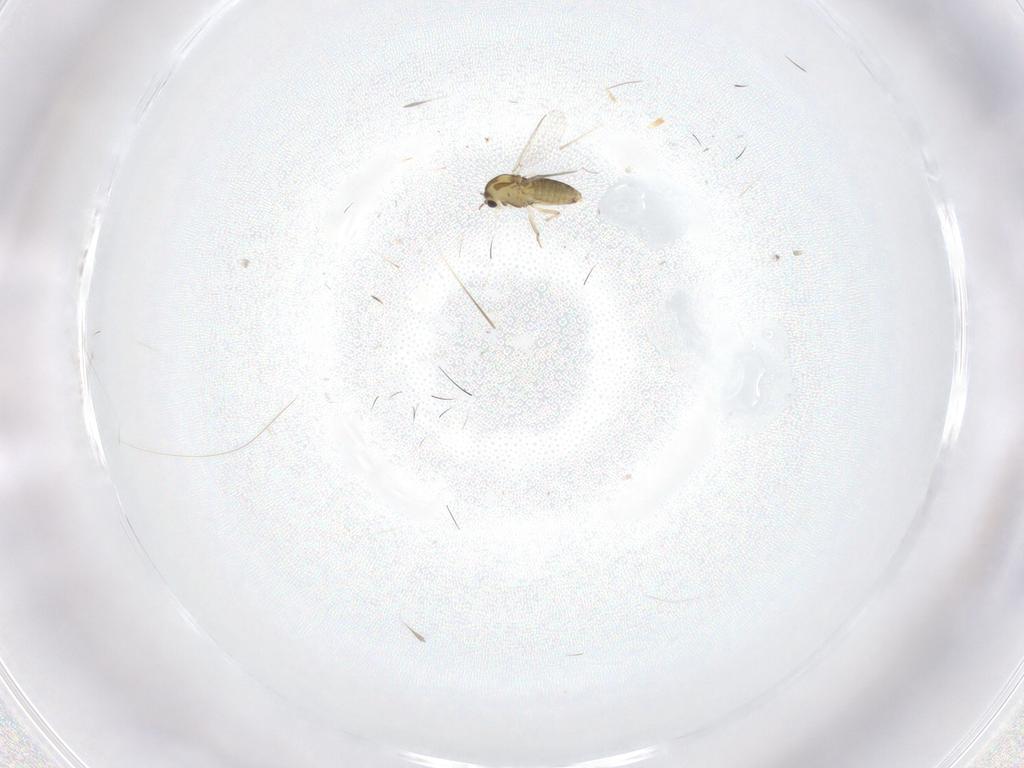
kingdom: Animalia
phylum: Arthropoda
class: Insecta
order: Diptera
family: Chironomidae
